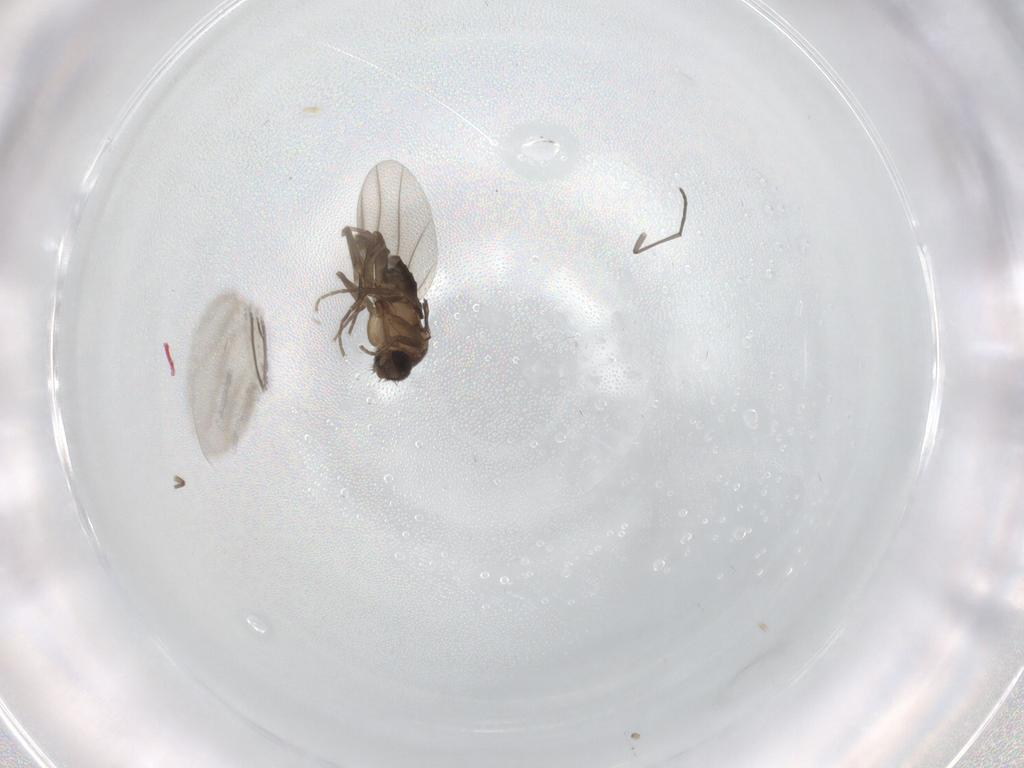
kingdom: Animalia
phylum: Arthropoda
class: Insecta
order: Diptera
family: Phoridae
